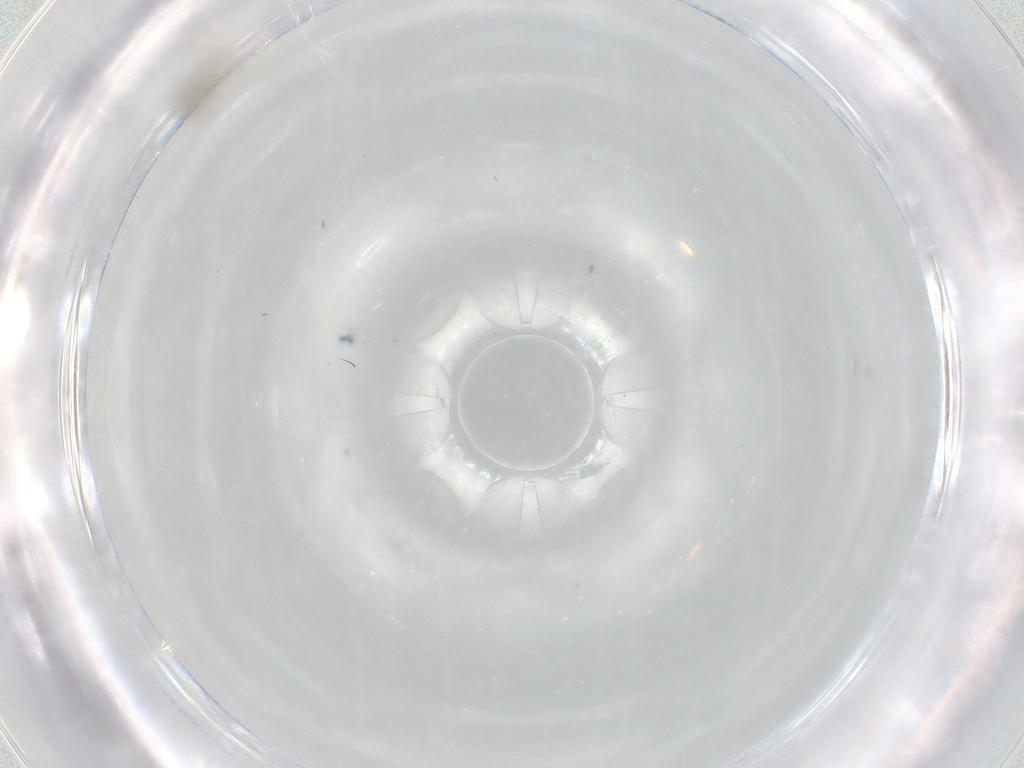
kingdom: Animalia
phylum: Arthropoda
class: Insecta
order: Diptera
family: Cecidomyiidae
